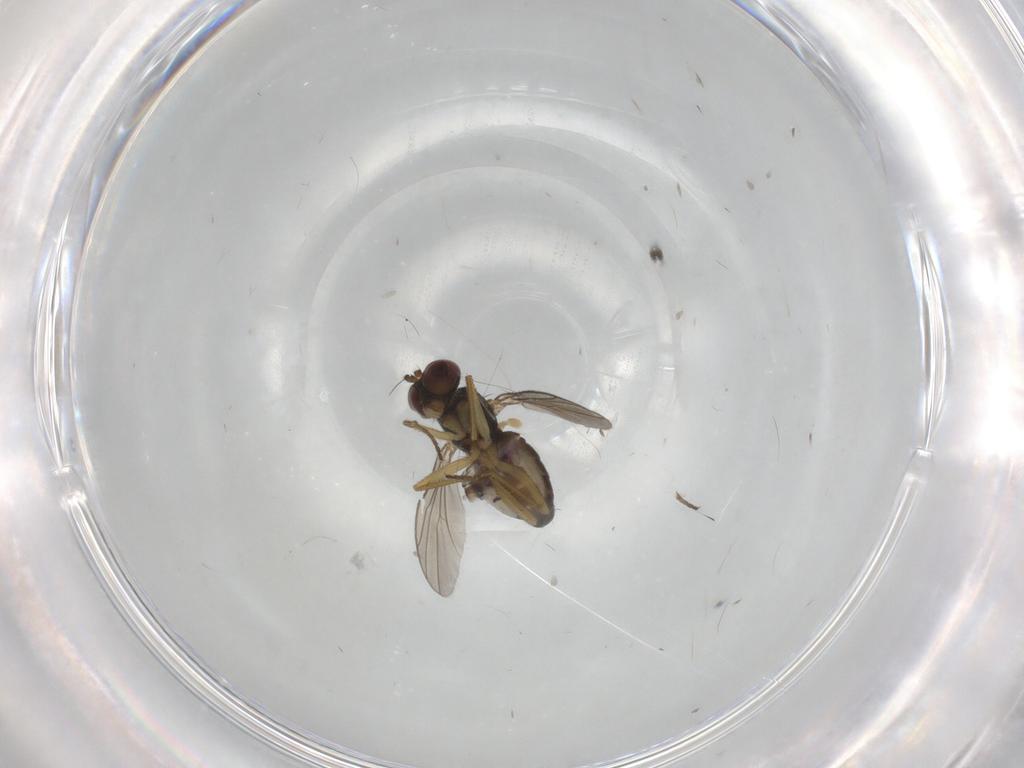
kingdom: Animalia
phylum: Arthropoda
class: Insecta
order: Diptera
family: Dolichopodidae
